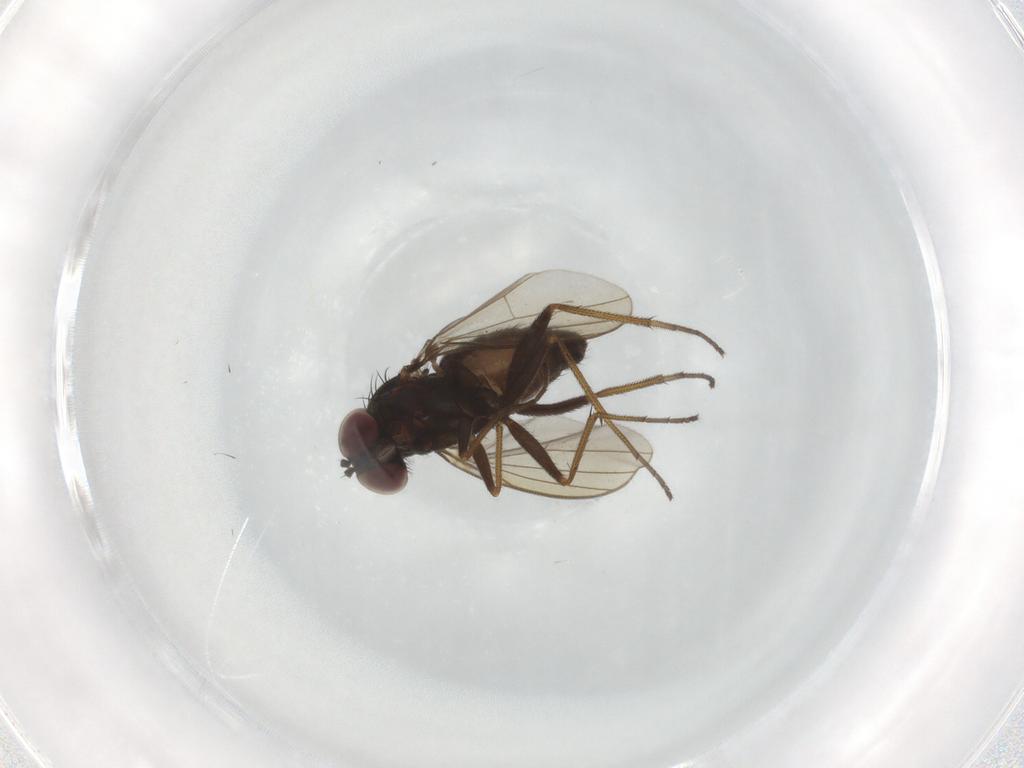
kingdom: Animalia
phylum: Arthropoda
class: Insecta
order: Diptera
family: Dolichopodidae
